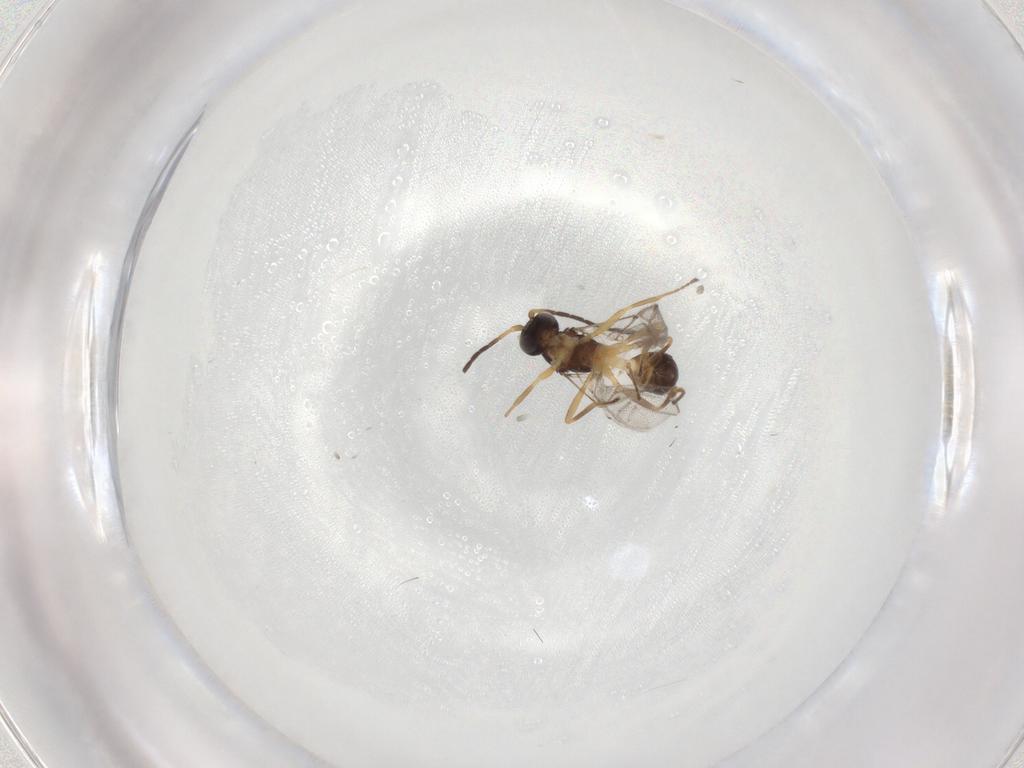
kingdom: Animalia
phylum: Arthropoda
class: Insecta
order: Hymenoptera
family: Braconidae
